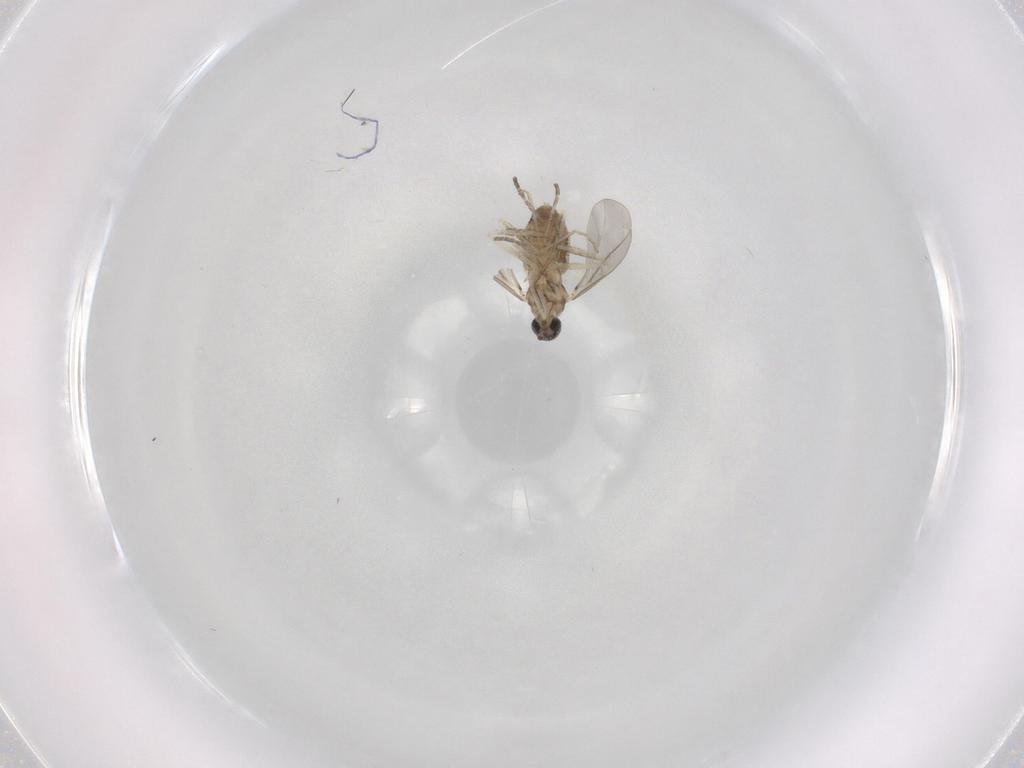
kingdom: Animalia
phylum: Arthropoda
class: Insecta
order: Diptera
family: Cecidomyiidae
